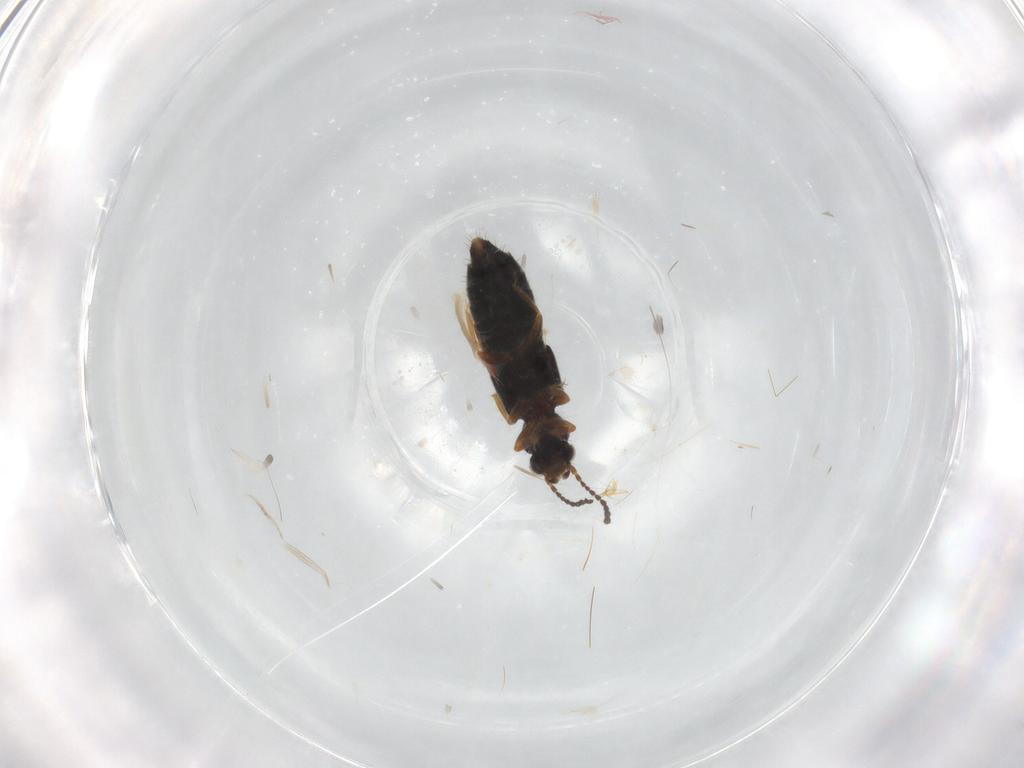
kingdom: Animalia
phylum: Arthropoda
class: Insecta
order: Coleoptera
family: Staphylinidae
